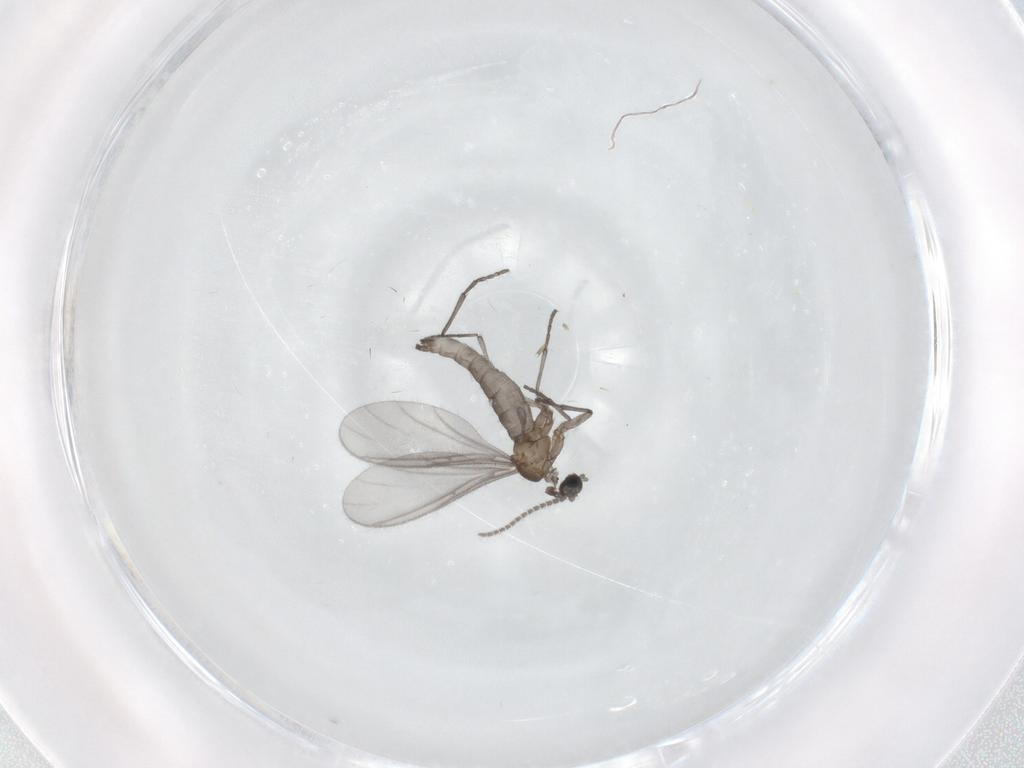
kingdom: Animalia
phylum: Arthropoda
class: Insecta
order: Diptera
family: Sciaridae
